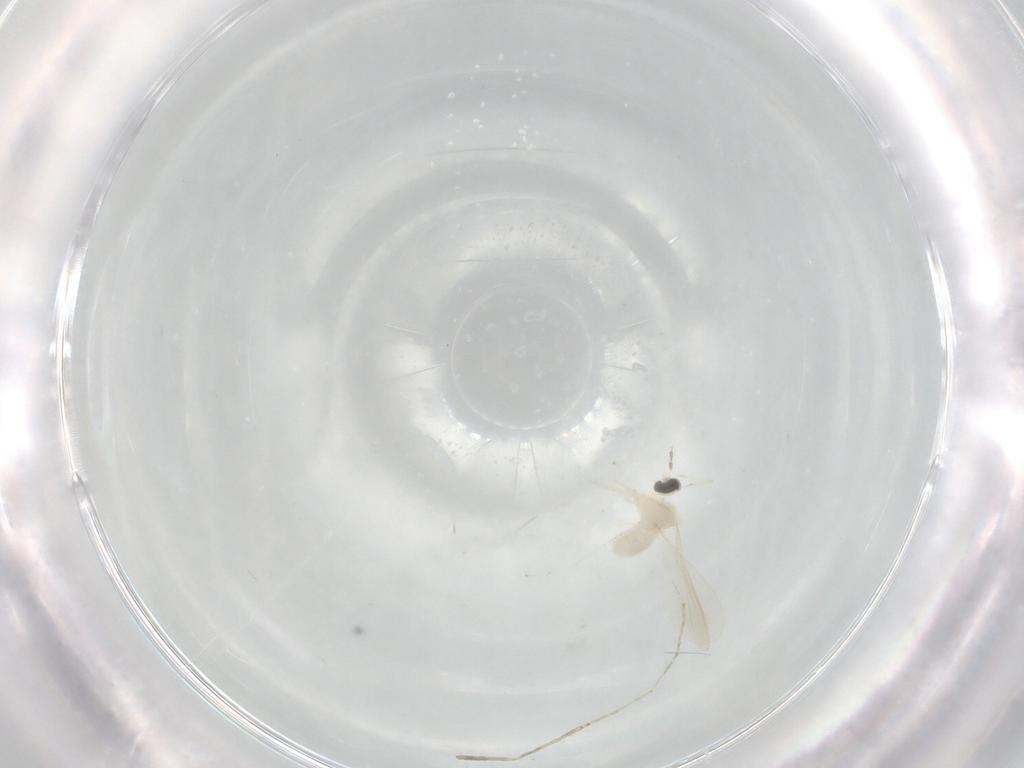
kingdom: Animalia
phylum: Arthropoda
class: Insecta
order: Diptera
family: Cecidomyiidae
